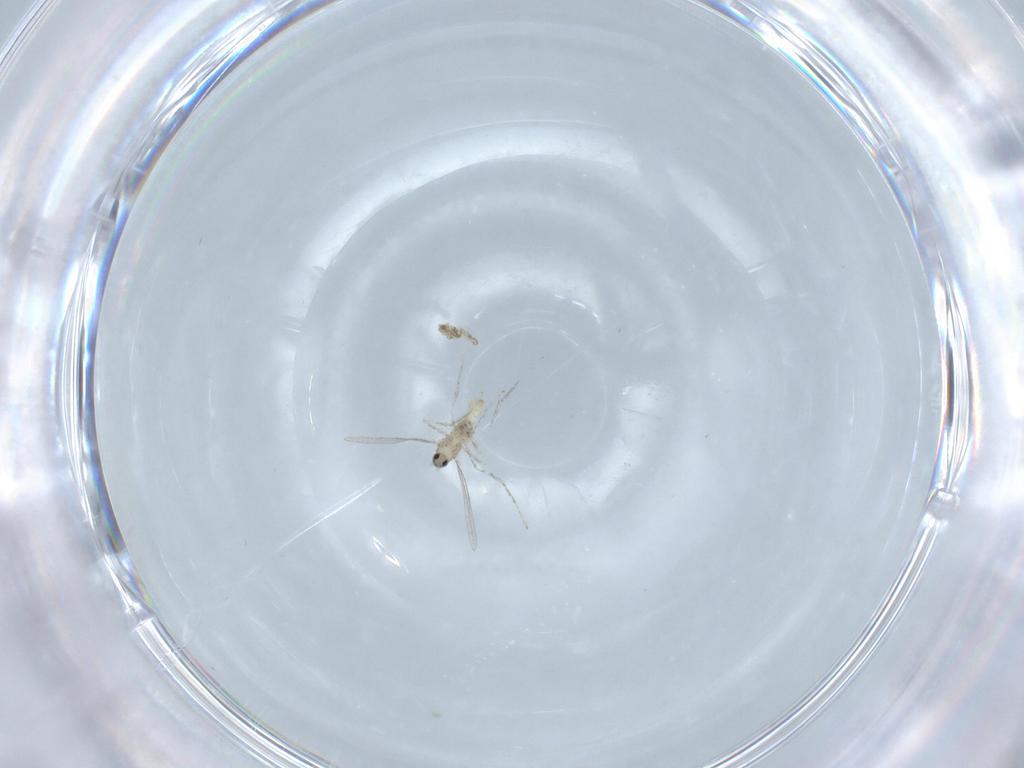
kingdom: Animalia
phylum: Arthropoda
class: Insecta
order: Diptera
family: Cecidomyiidae
